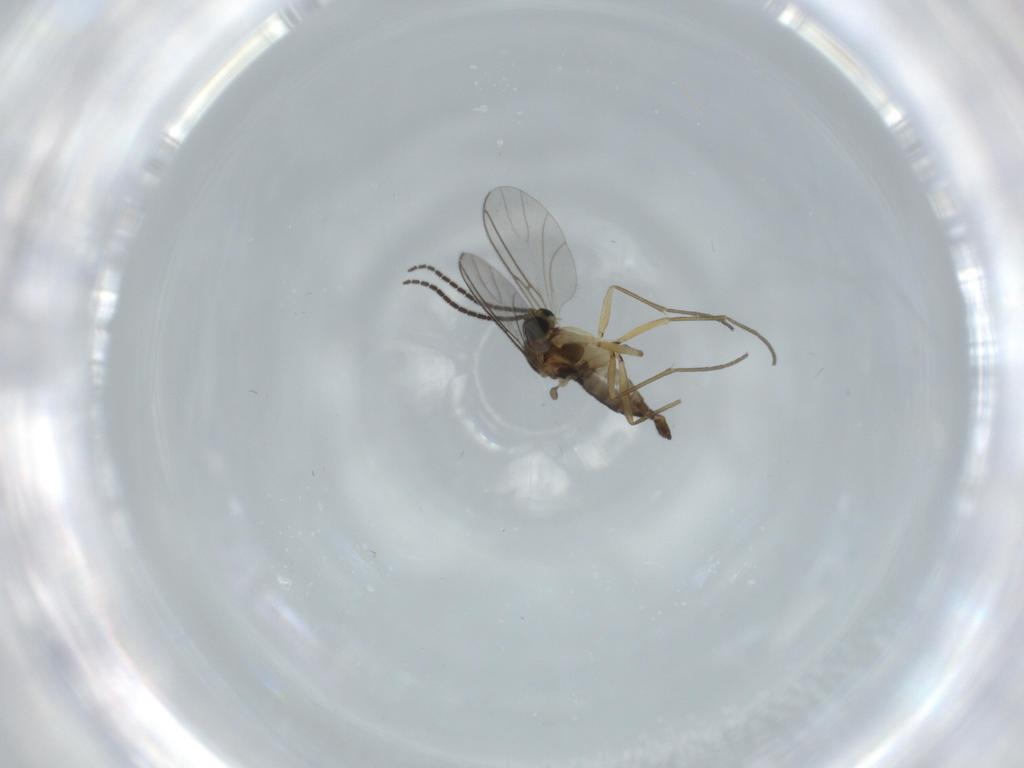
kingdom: Animalia
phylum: Arthropoda
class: Insecta
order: Diptera
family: Sciaridae
